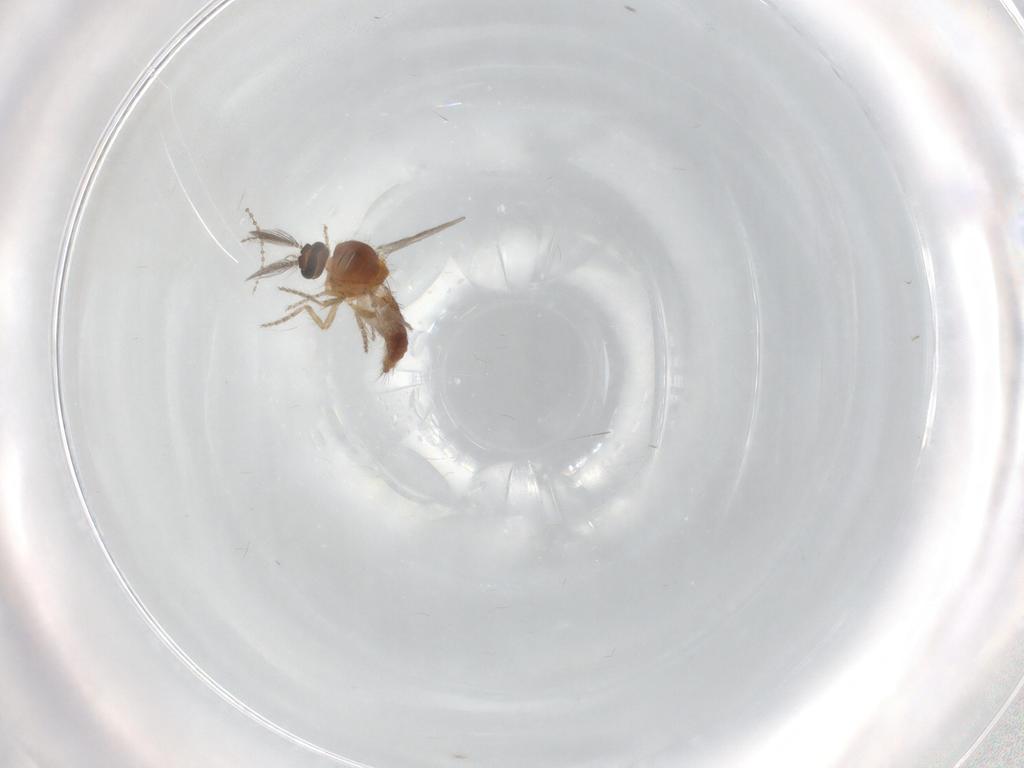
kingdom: Animalia
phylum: Arthropoda
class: Insecta
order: Diptera
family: Ceratopogonidae
